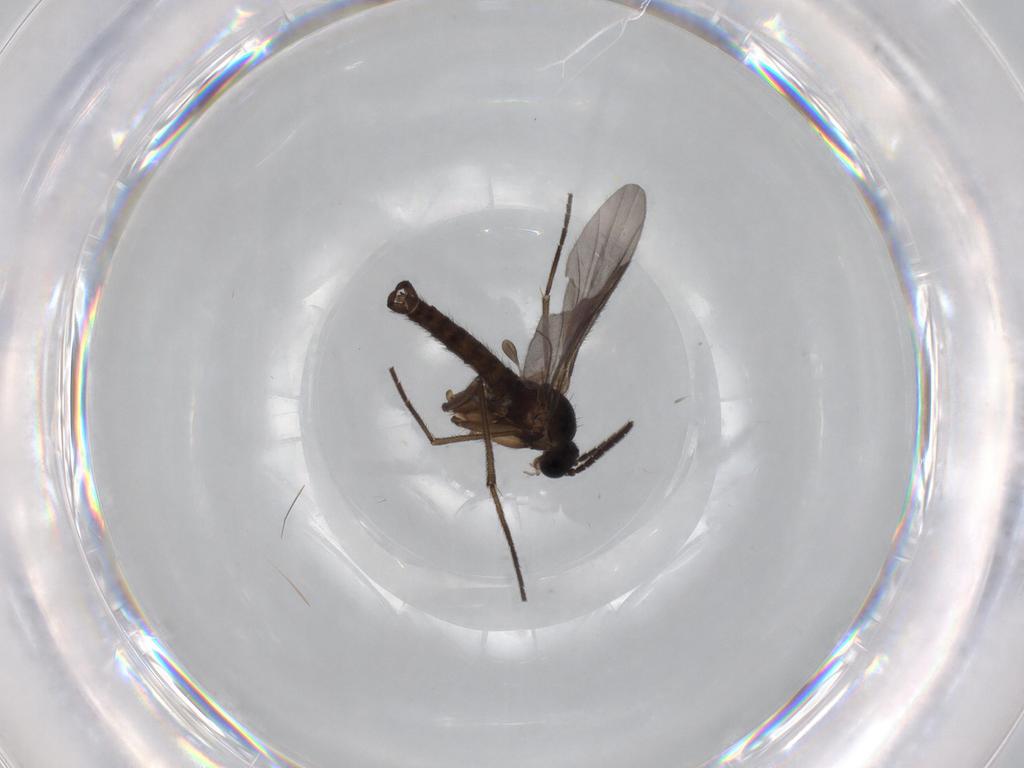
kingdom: Animalia
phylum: Arthropoda
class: Insecta
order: Diptera
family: Sciaridae
